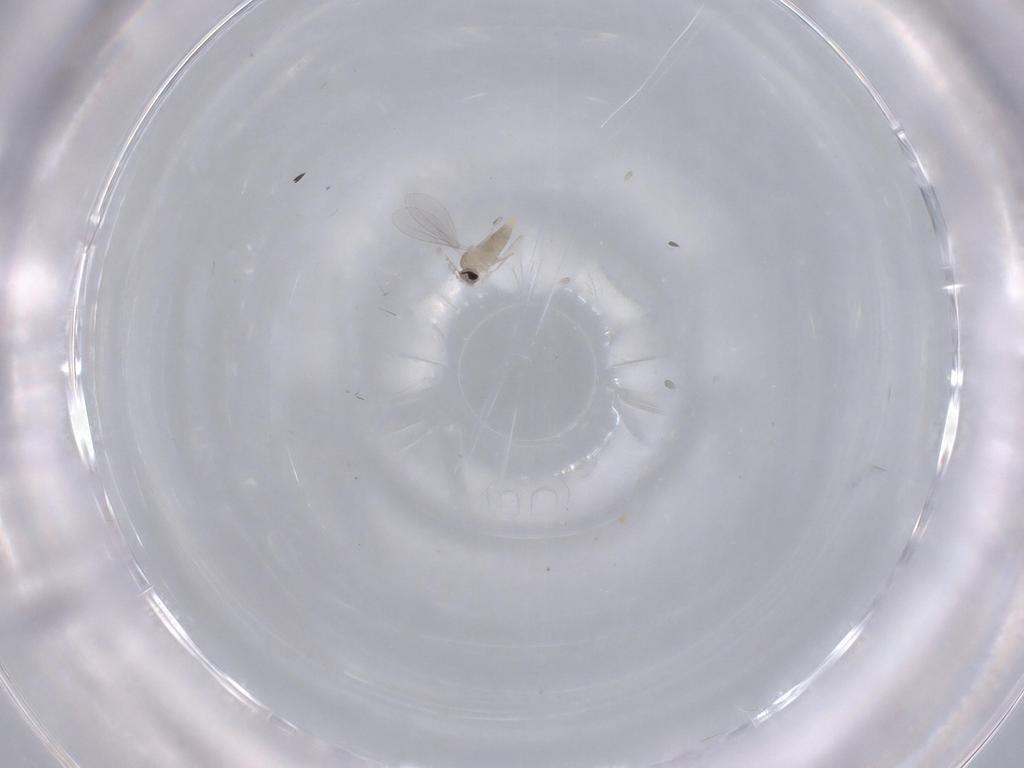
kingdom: Animalia
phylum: Arthropoda
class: Insecta
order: Diptera
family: Cecidomyiidae
